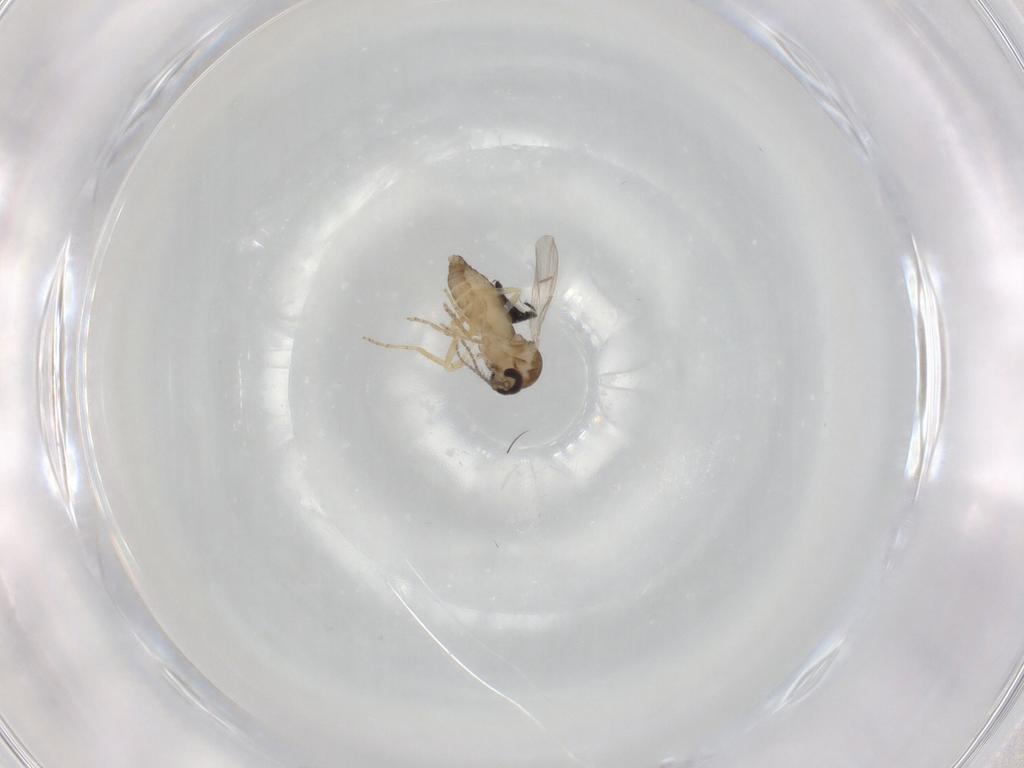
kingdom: Animalia
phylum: Arthropoda
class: Insecta
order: Diptera
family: Ceratopogonidae
